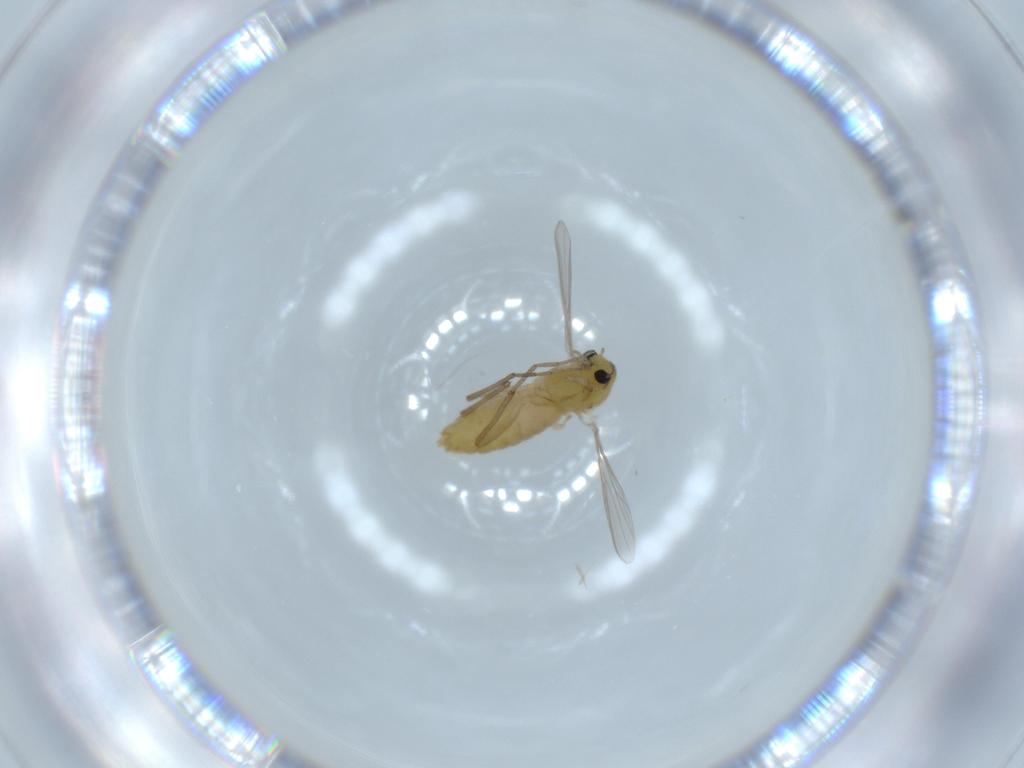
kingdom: Animalia
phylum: Arthropoda
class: Insecta
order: Diptera
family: Chironomidae
